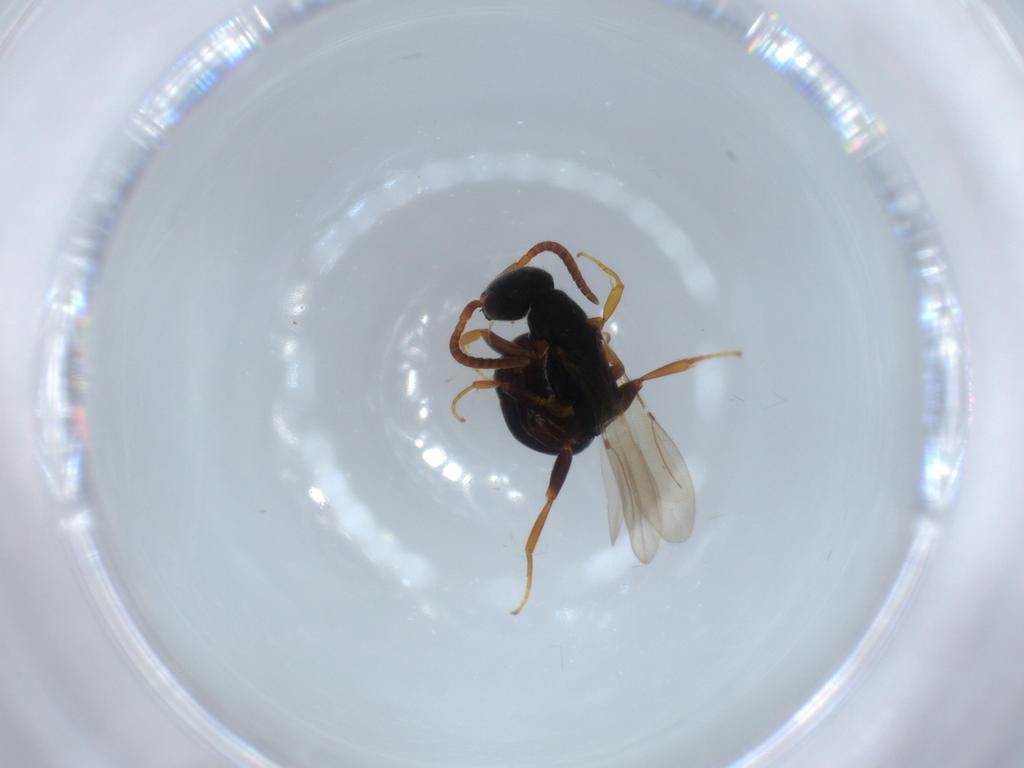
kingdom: Animalia
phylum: Arthropoda
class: Insecta
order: Hymenoptera
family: Bethylidae
